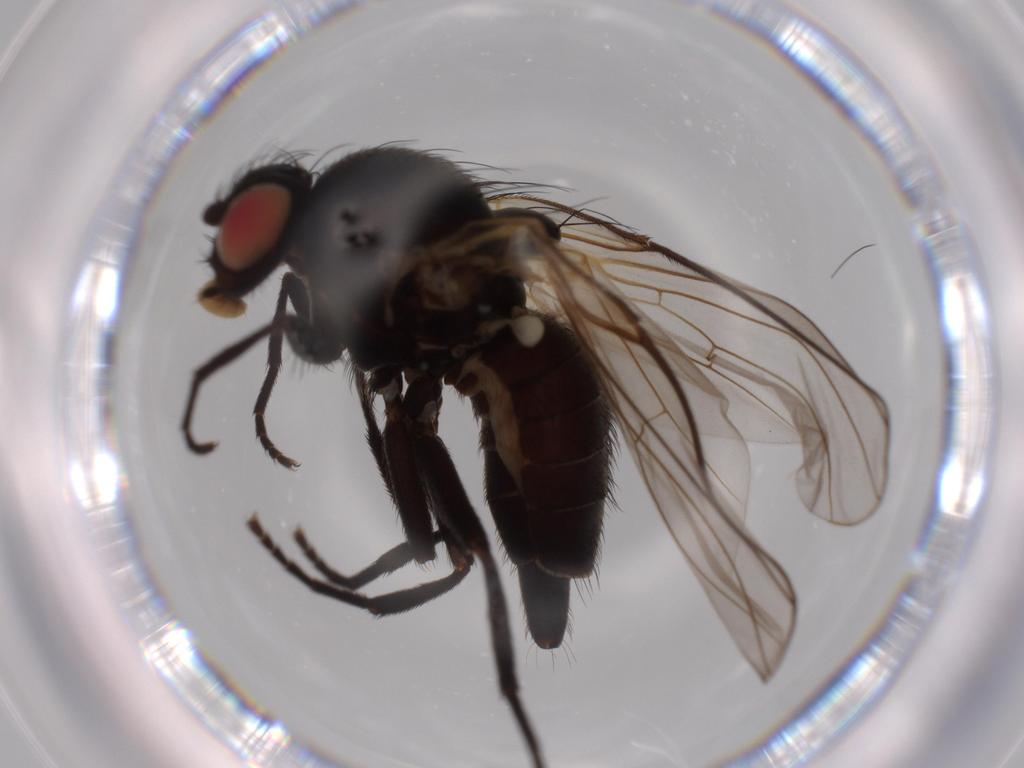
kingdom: Animalia
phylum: Arthropoda
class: Insecta
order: Diptera
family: Agromyzidae
